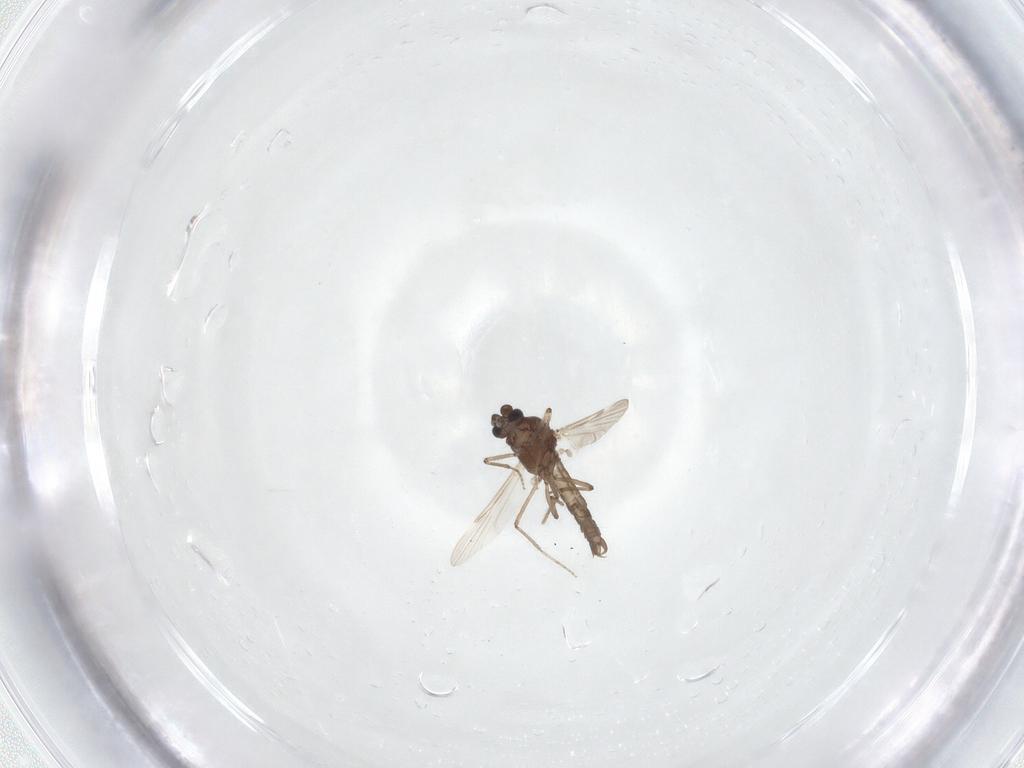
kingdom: Animalia
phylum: Arthropoda
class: Insecta
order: Diptera
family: Ceratopogonidae
